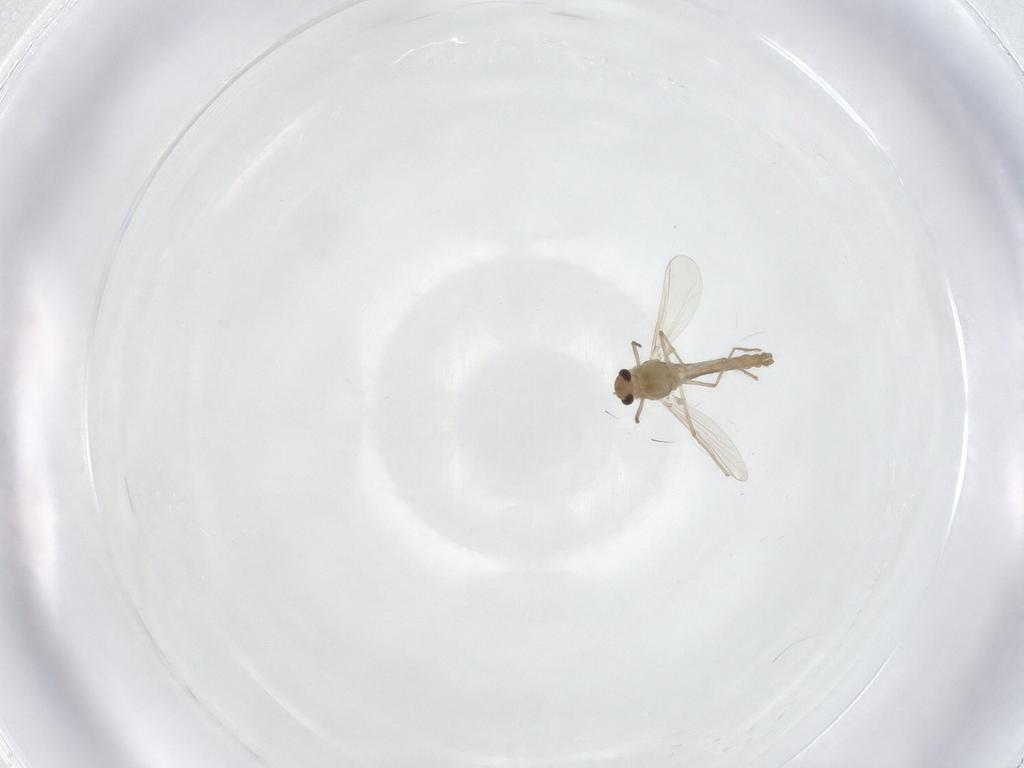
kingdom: Animalia
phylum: Arthropoda
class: Insecta
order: Diptera
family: Chironomidae
